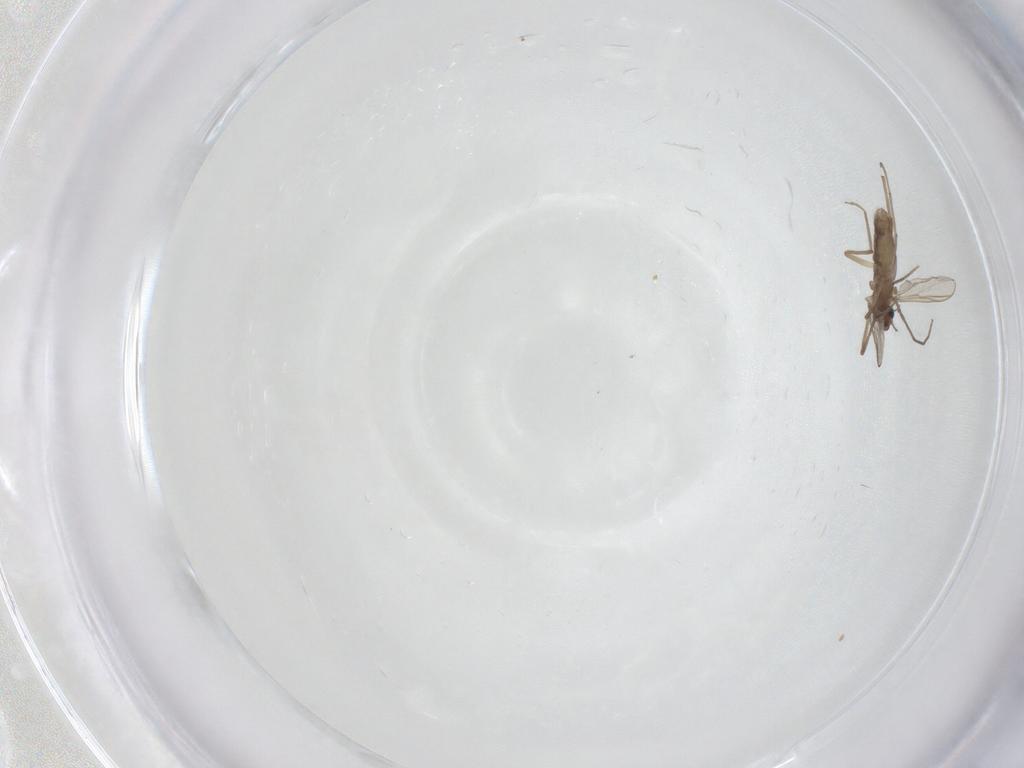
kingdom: Animalia
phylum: Arthropoda
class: Insecta
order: Diptera
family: Chironomidae
